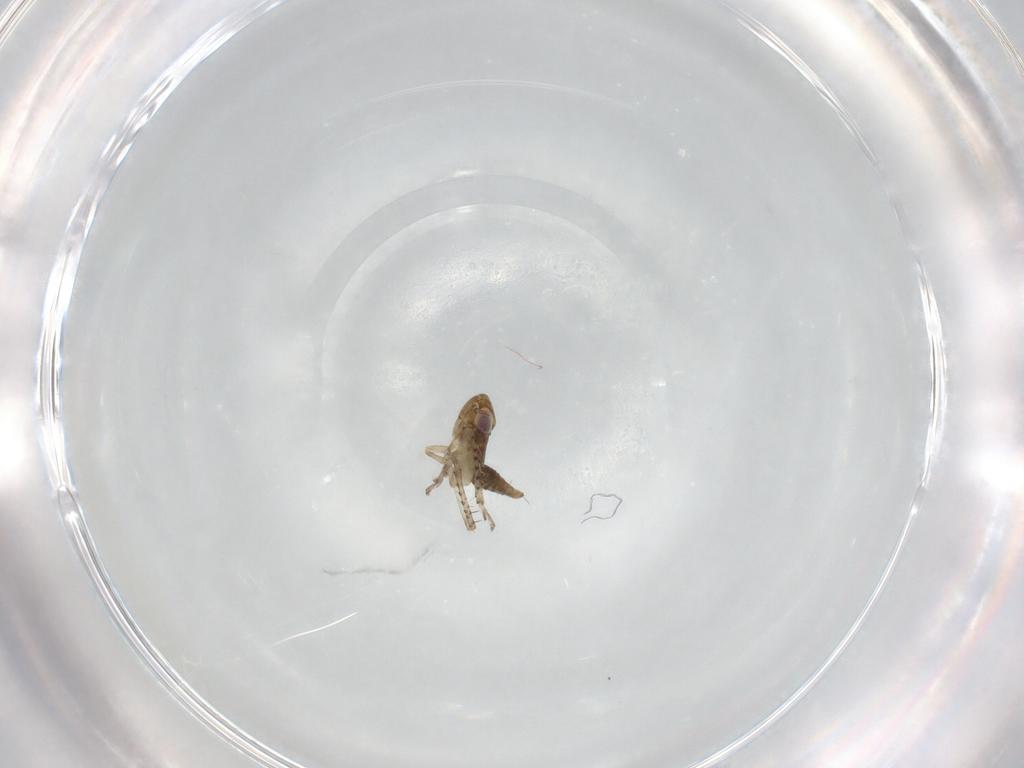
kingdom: Animalia
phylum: Arthropoda
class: Insecta
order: Hemiptera
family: Cicadellidae
